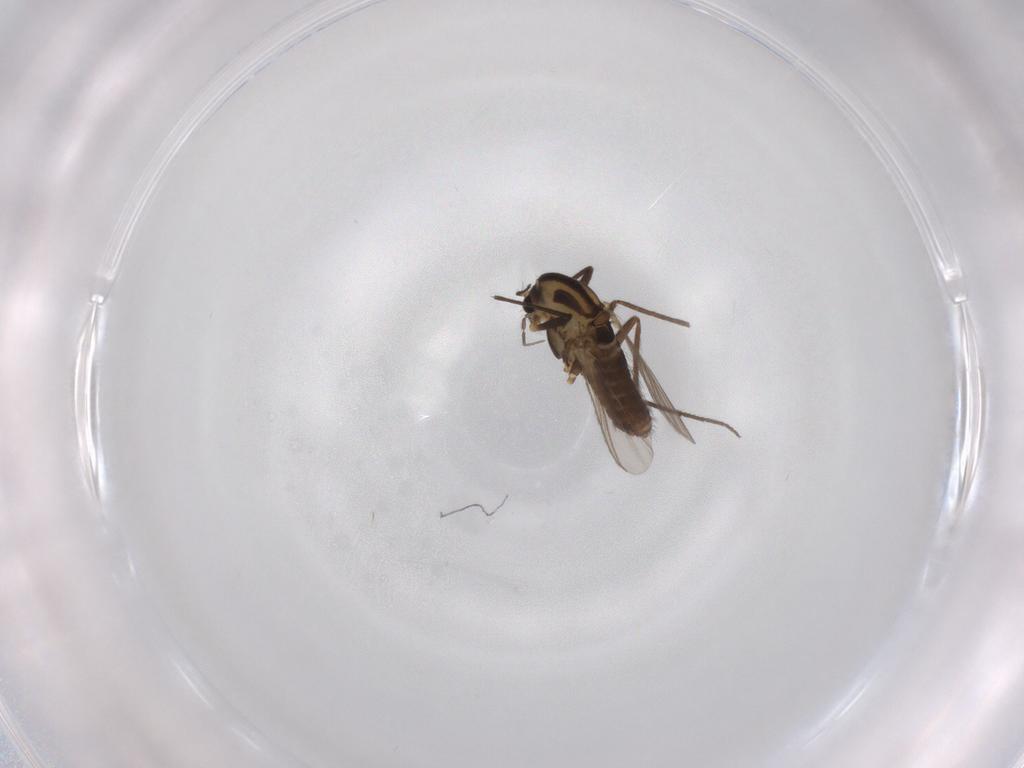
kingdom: Animalia
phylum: Arthropoda
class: Insecta
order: Diptera
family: Chironomidae
